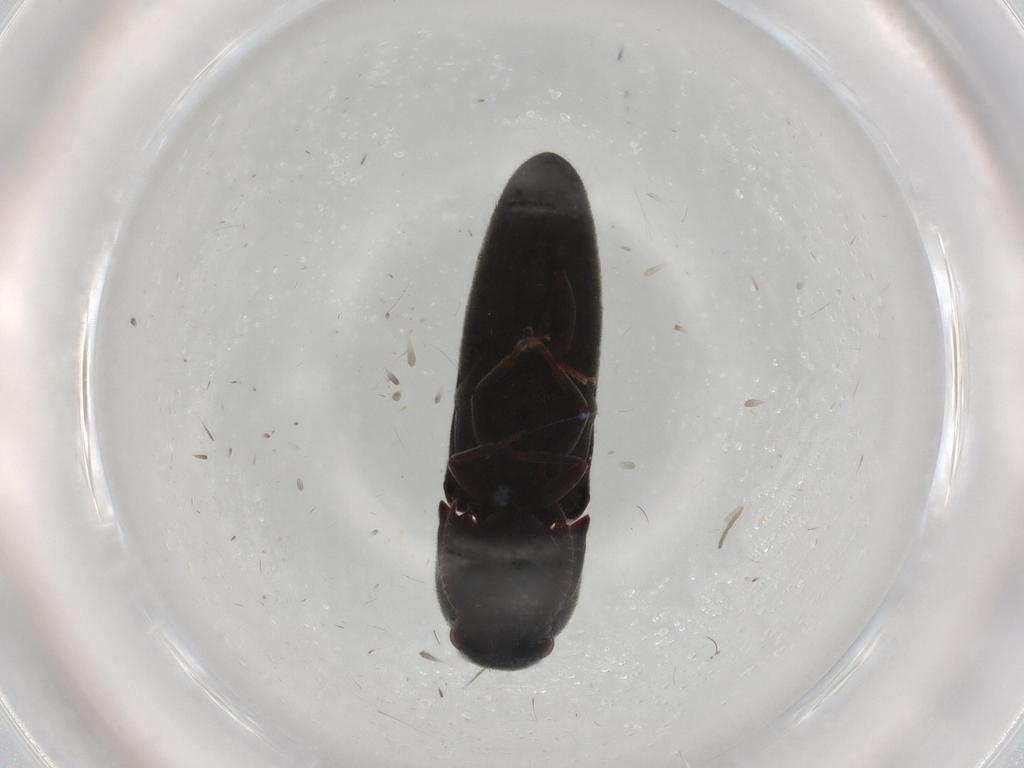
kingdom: Animalia
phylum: Arthropoda
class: Insecta
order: Coleoptera
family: Eucnemidae
